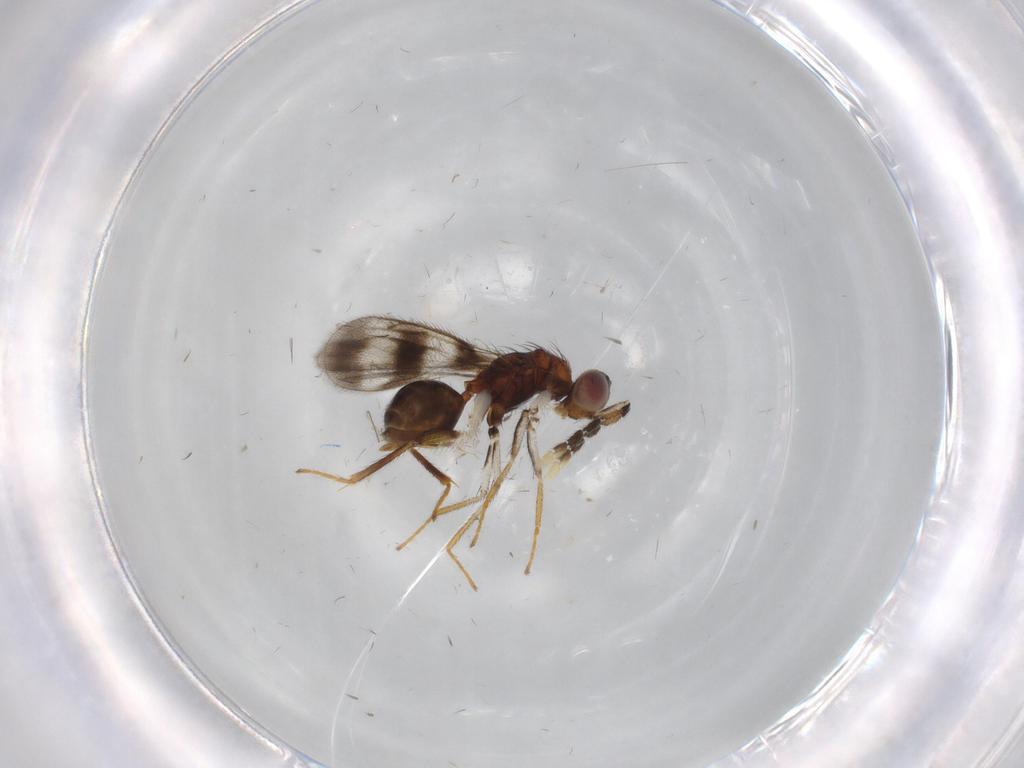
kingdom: Animalia
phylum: Arthropoda
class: Insecta
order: Hymenoptera
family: Eulophidae
